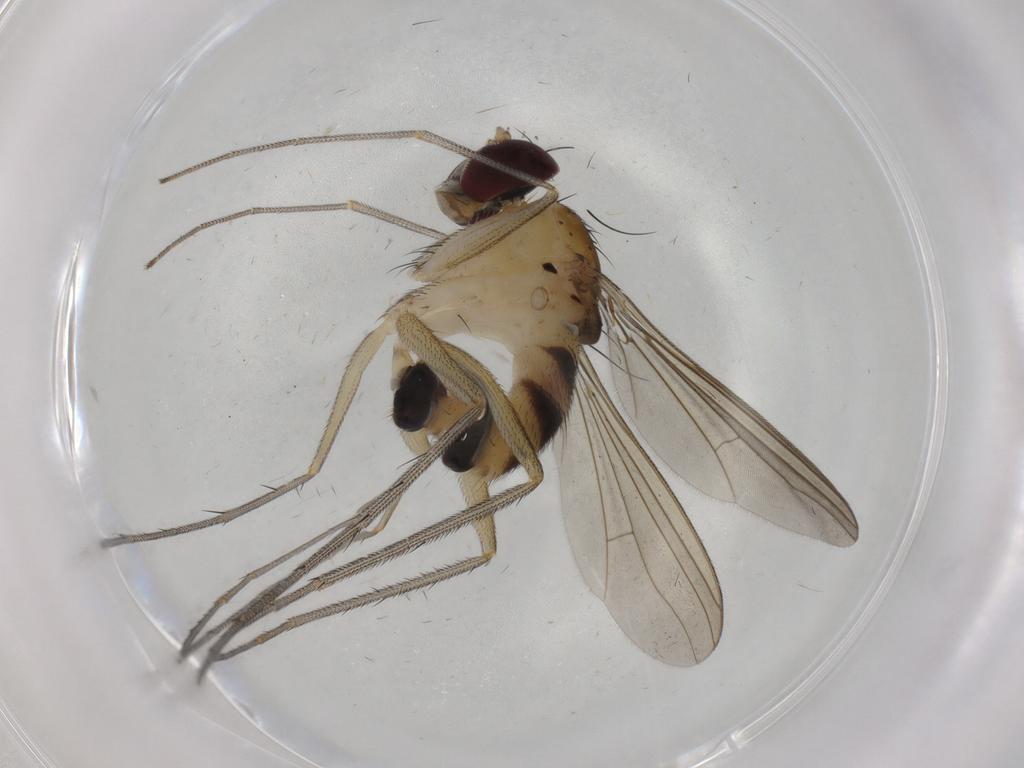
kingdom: Animalia
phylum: Arthropoda
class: Insecta
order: Diptera
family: Cecidomyiidae
